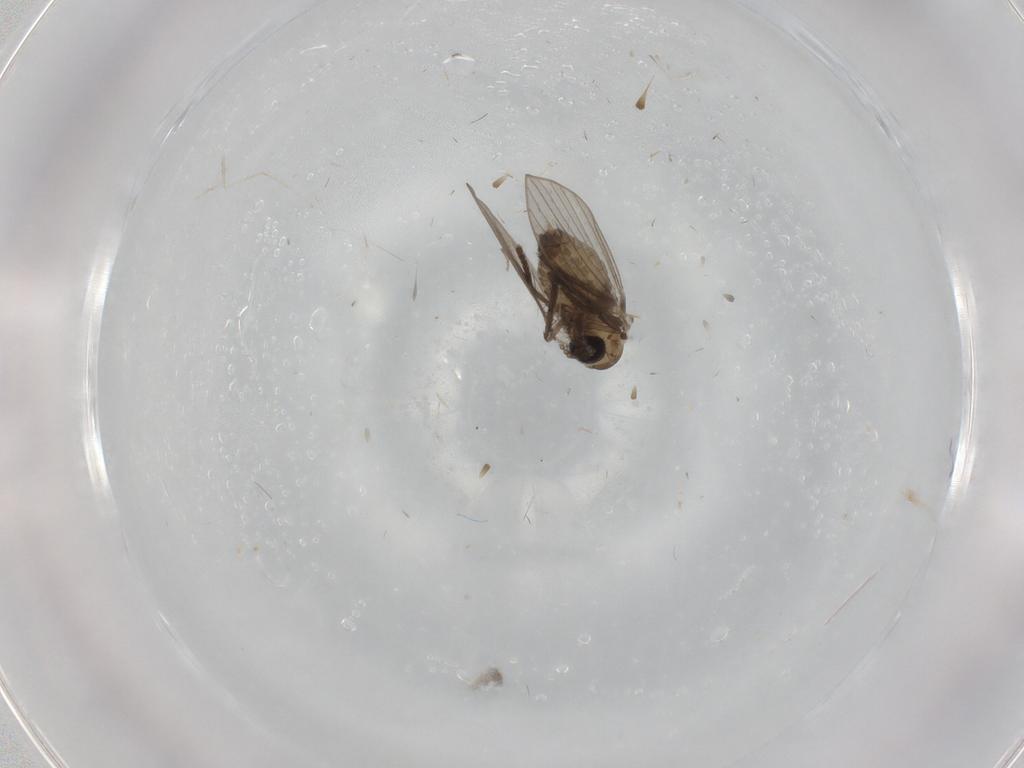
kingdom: Animalia
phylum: Arthropoda
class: Insecta
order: Diptera
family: Psychodidae
